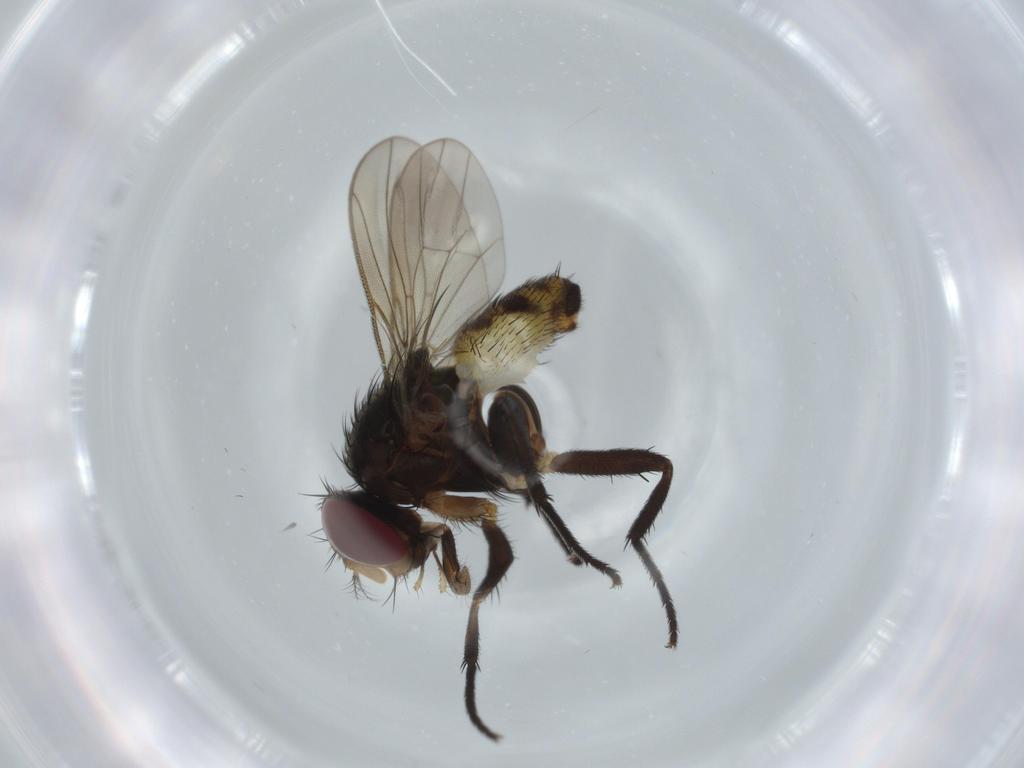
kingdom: Animalia
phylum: Arthropoda
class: Insecta
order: Diptera
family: Anthomyiidae
